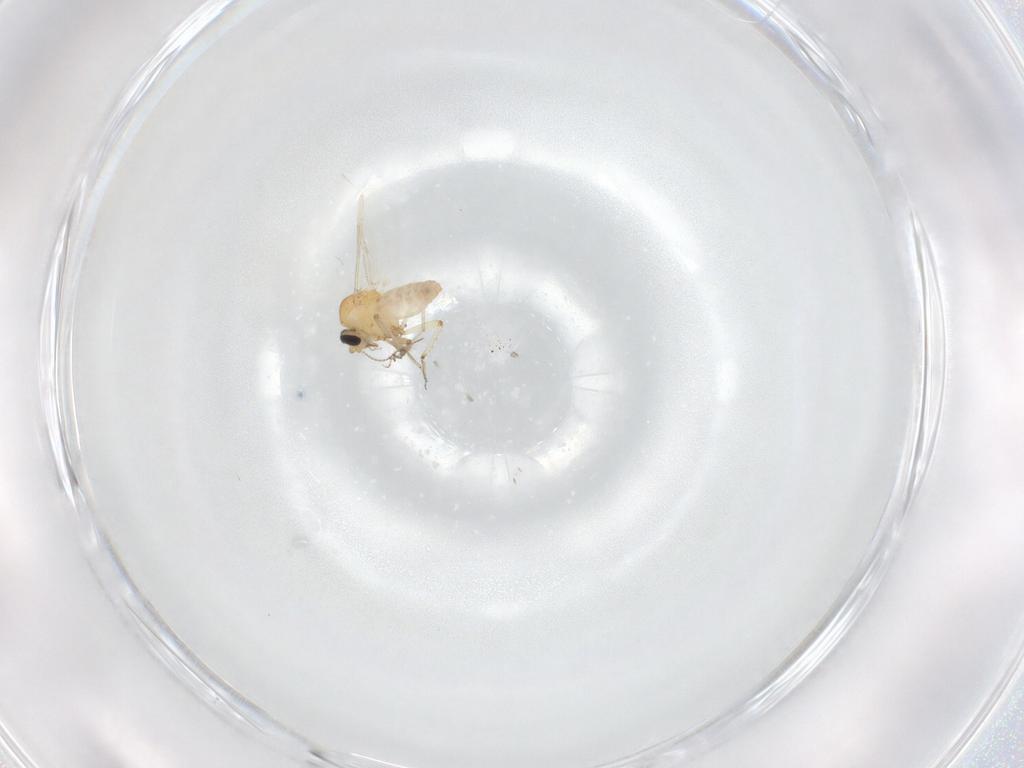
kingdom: Animalia
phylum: Arthropoda
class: Insecta
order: Diptera
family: Ceratopogonidae
